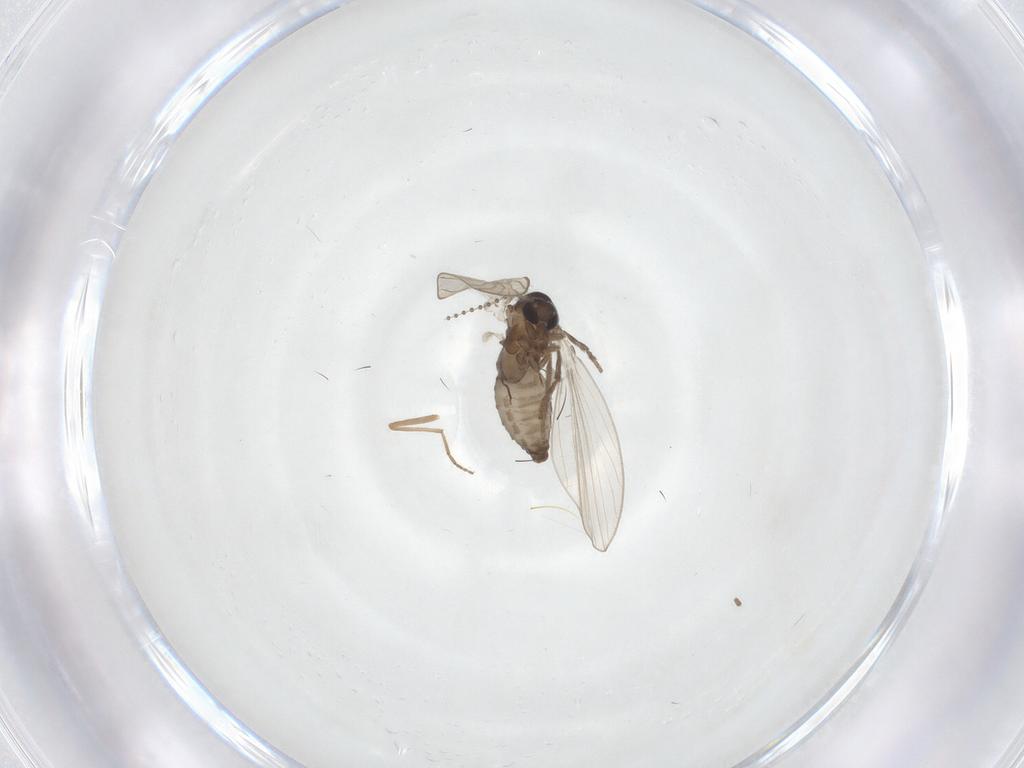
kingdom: Animalia
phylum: Arthropoda
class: Insecta
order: Diptera
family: Psychodidae
